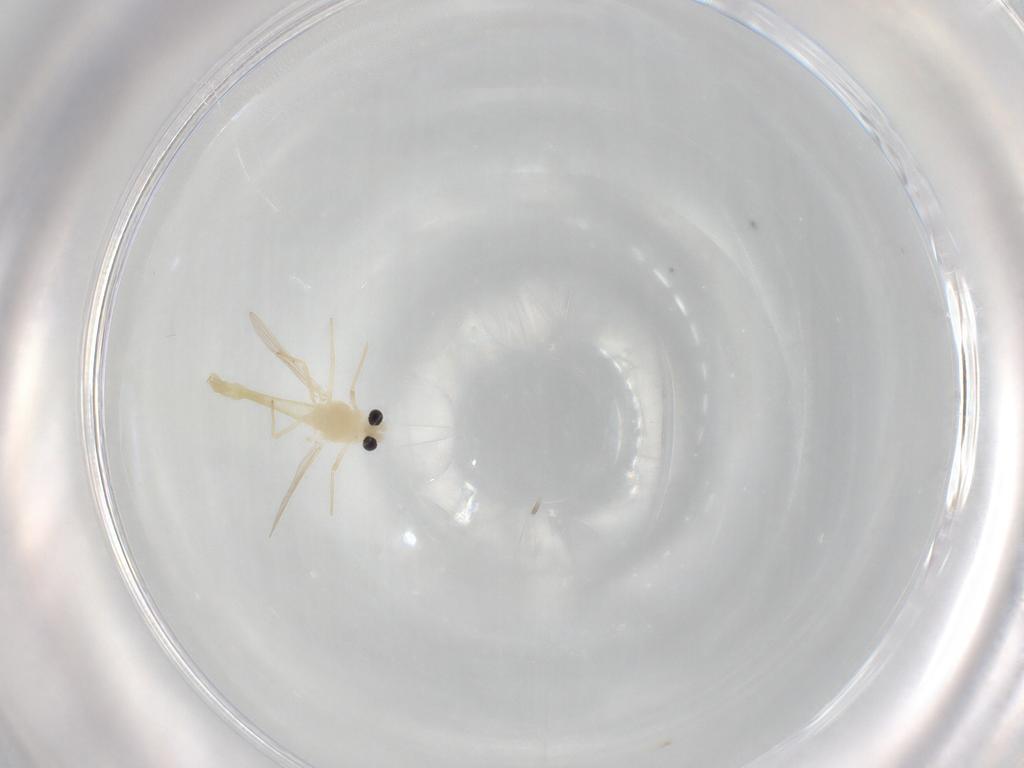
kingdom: Animalia
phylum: Arthropoda
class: Insecta
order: Diptera
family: Chironomidae
